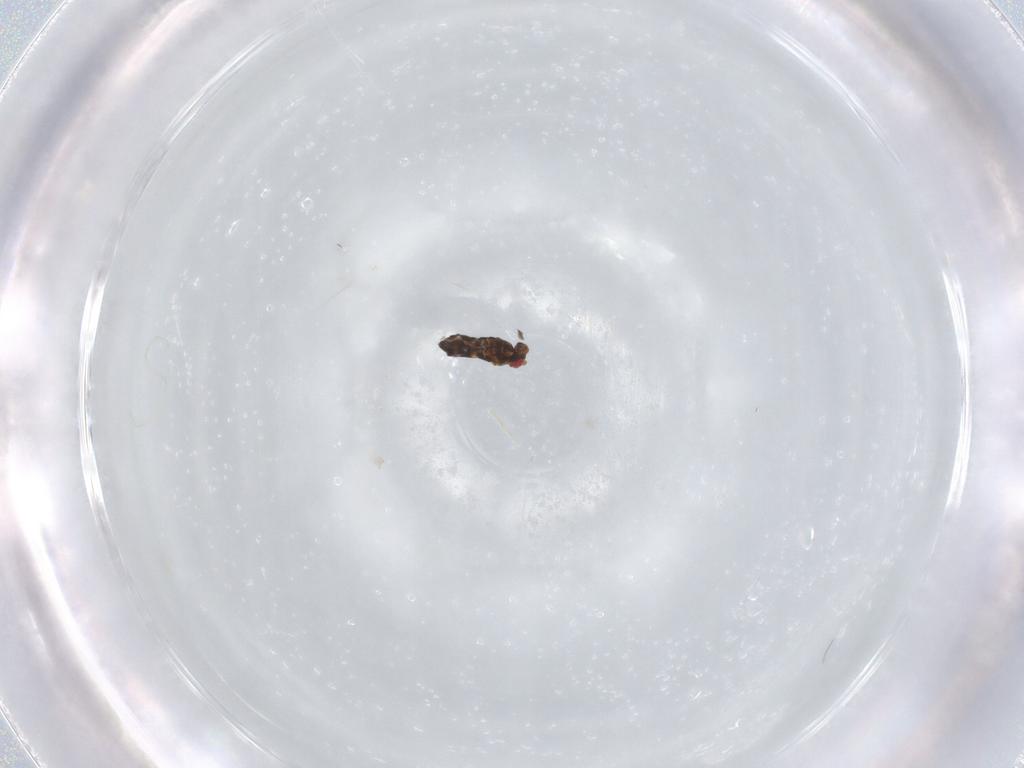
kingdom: Animalia
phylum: Arthropoda
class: Insecta
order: Hymenoptera
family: Trichogrammatidae
